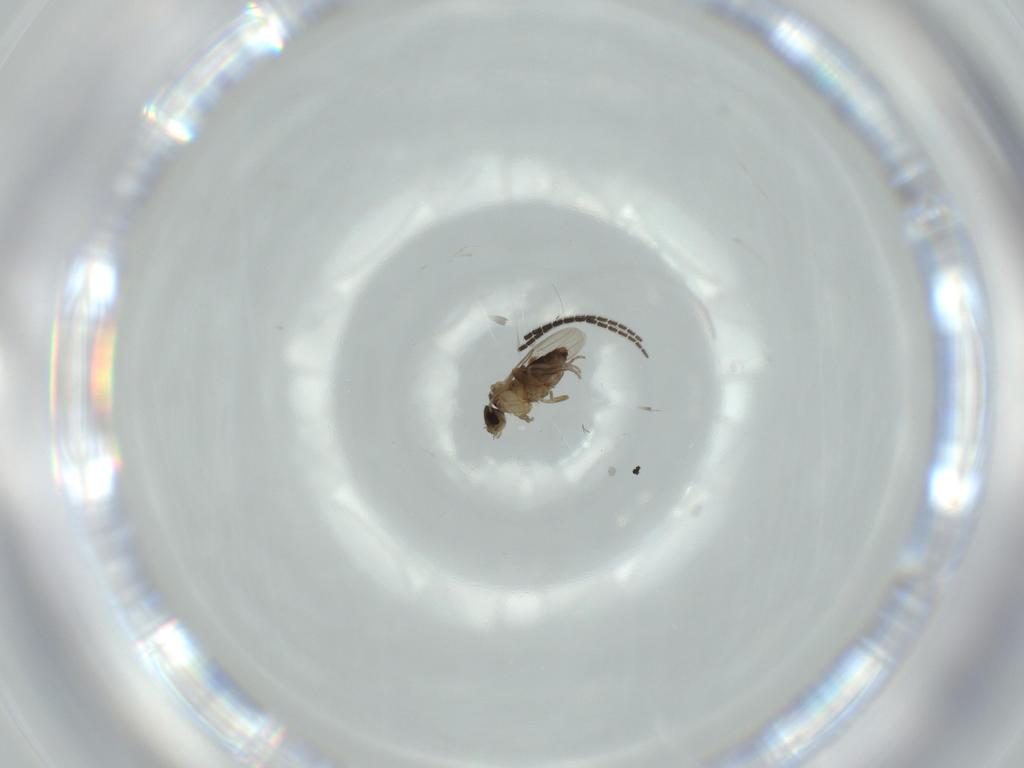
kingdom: Animalia
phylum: Arthropoda
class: Insecta
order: Diptera
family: Sciaridae
